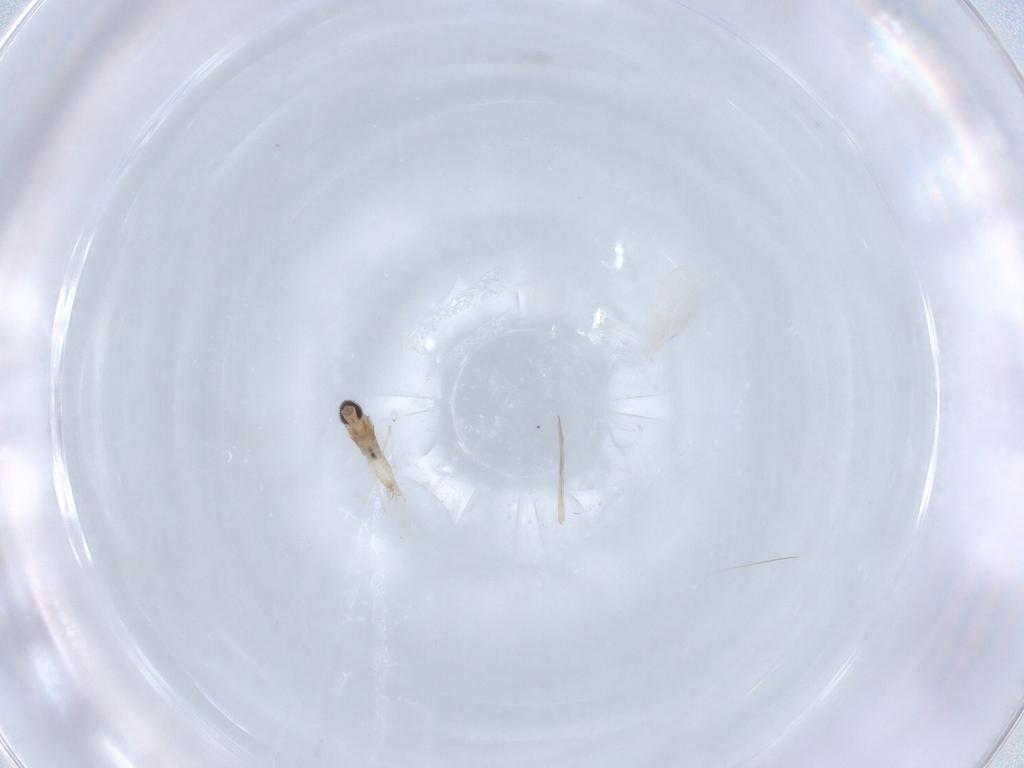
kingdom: Animalia
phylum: Arthropoda
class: Insecta
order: Diptera
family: Cecidomyiidae
